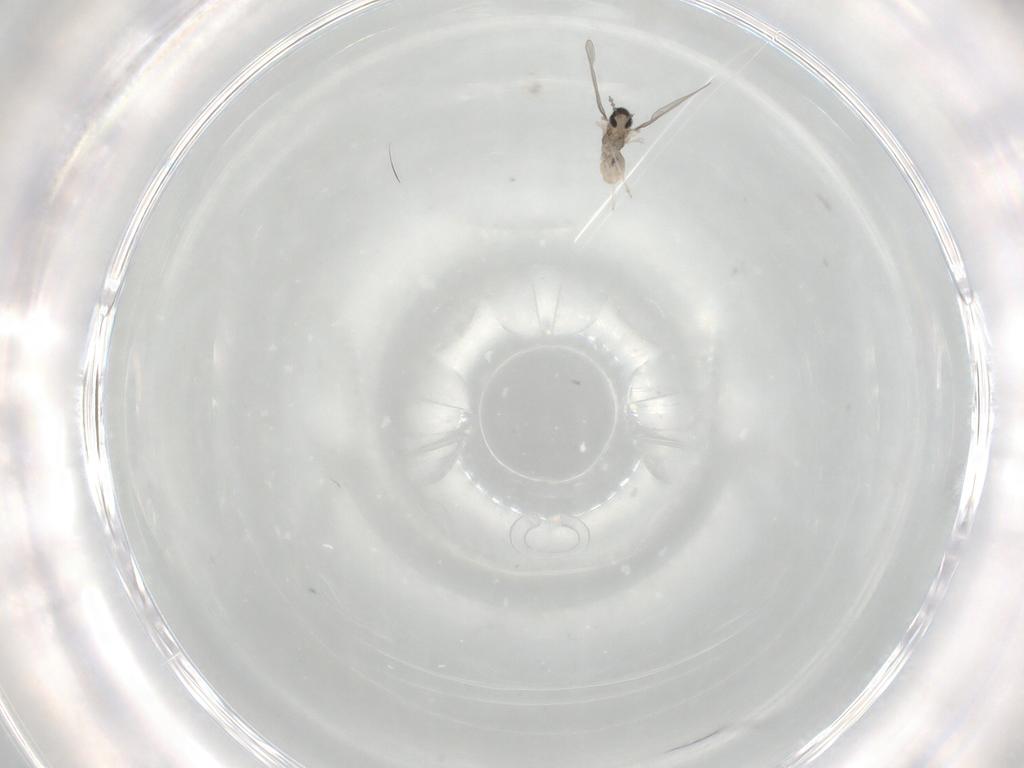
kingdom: Animalia
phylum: Arthropoda
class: Insecta
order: Diptera
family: Cecidomyiidae
